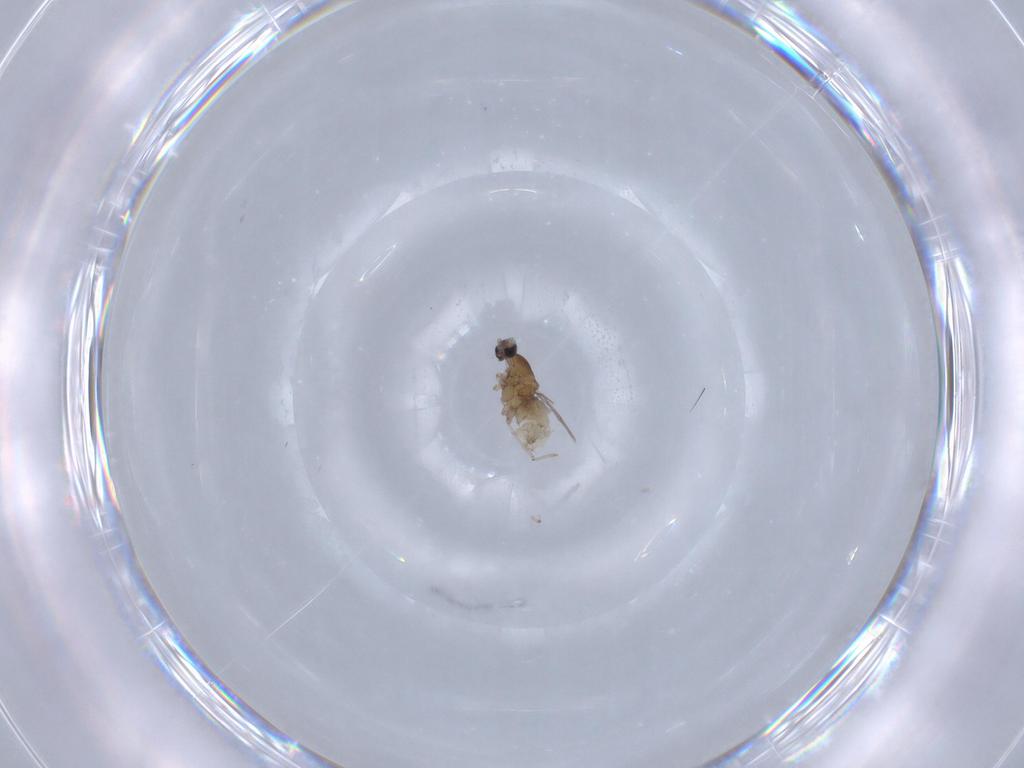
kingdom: Animalia
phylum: Arthropoda
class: Insecta
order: Diptera
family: Cecidomyiidae
